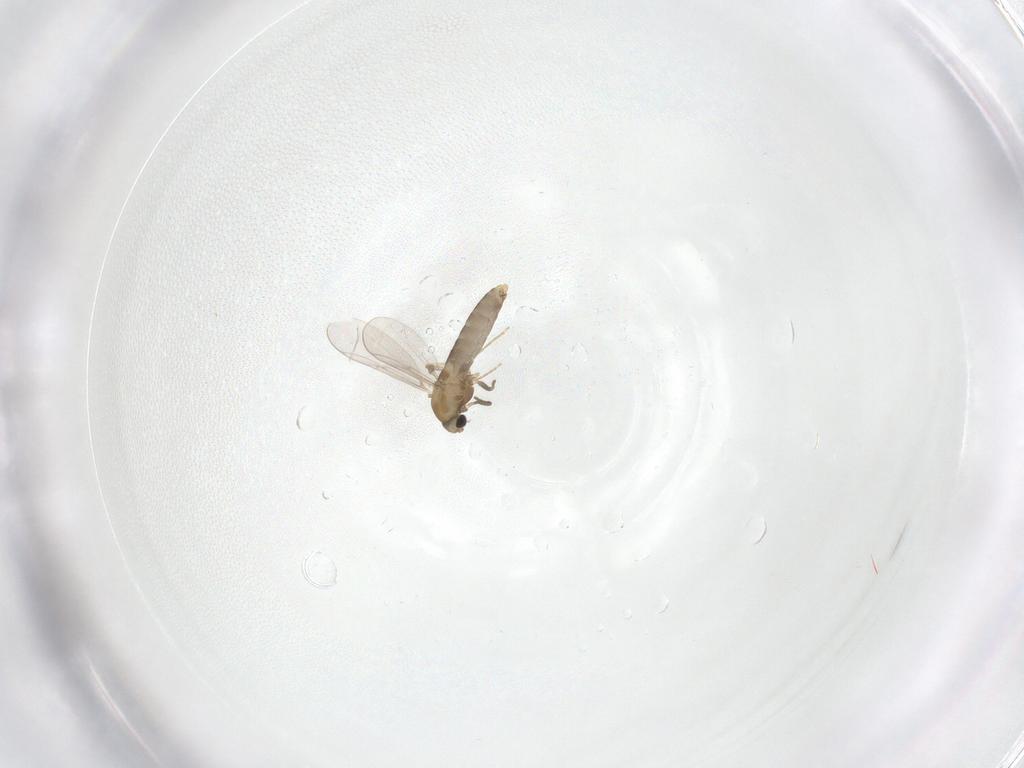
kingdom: Animalia
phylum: Arthropoda
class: Insecta
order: Diptera
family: Chironomidae
